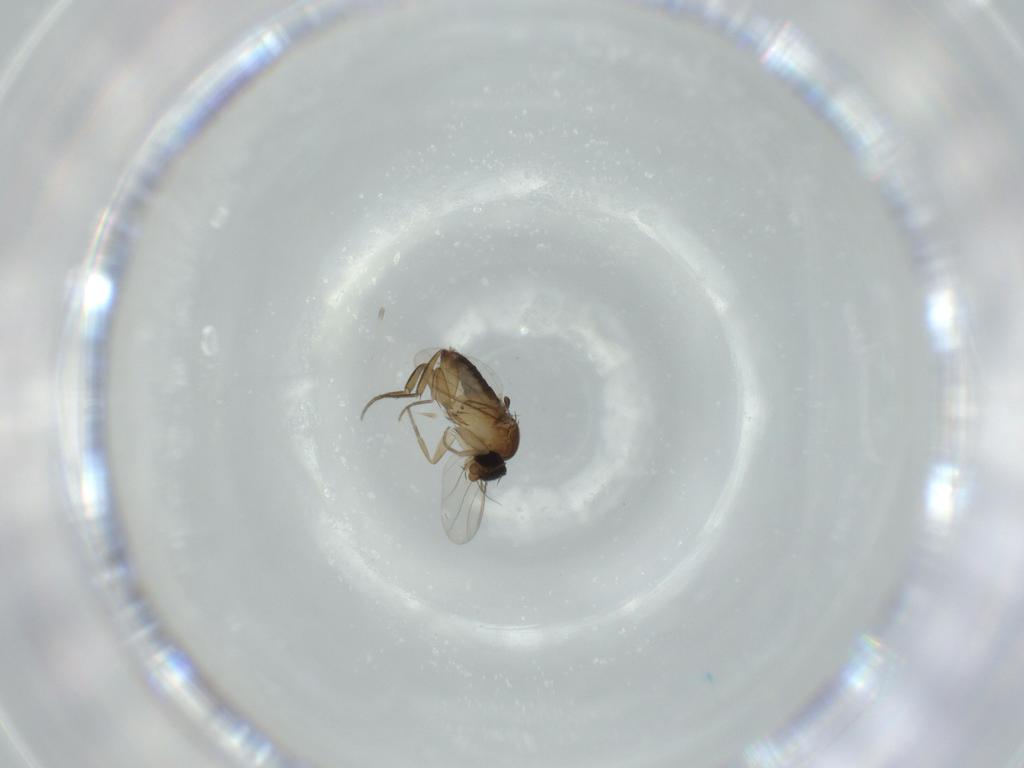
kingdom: Animalia
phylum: Arthropoda
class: Insecta
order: Diptera
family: Phoridae
